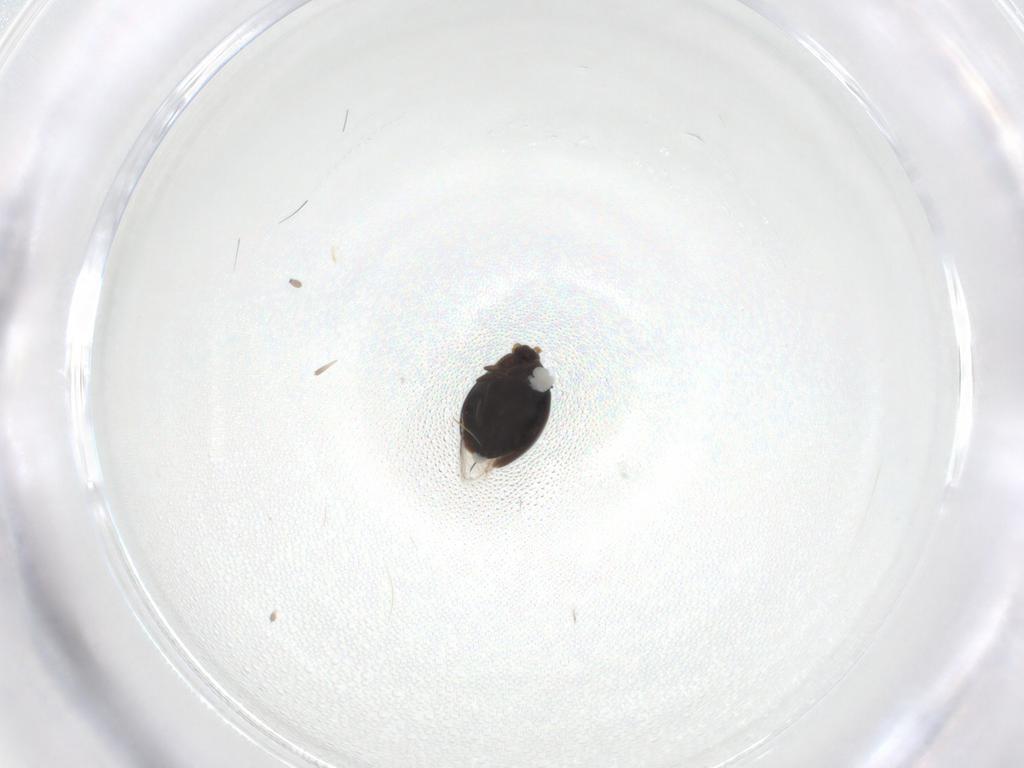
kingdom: Animalia
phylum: Arthropoda
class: Insecta
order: Coleoptera
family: Corylophidae
